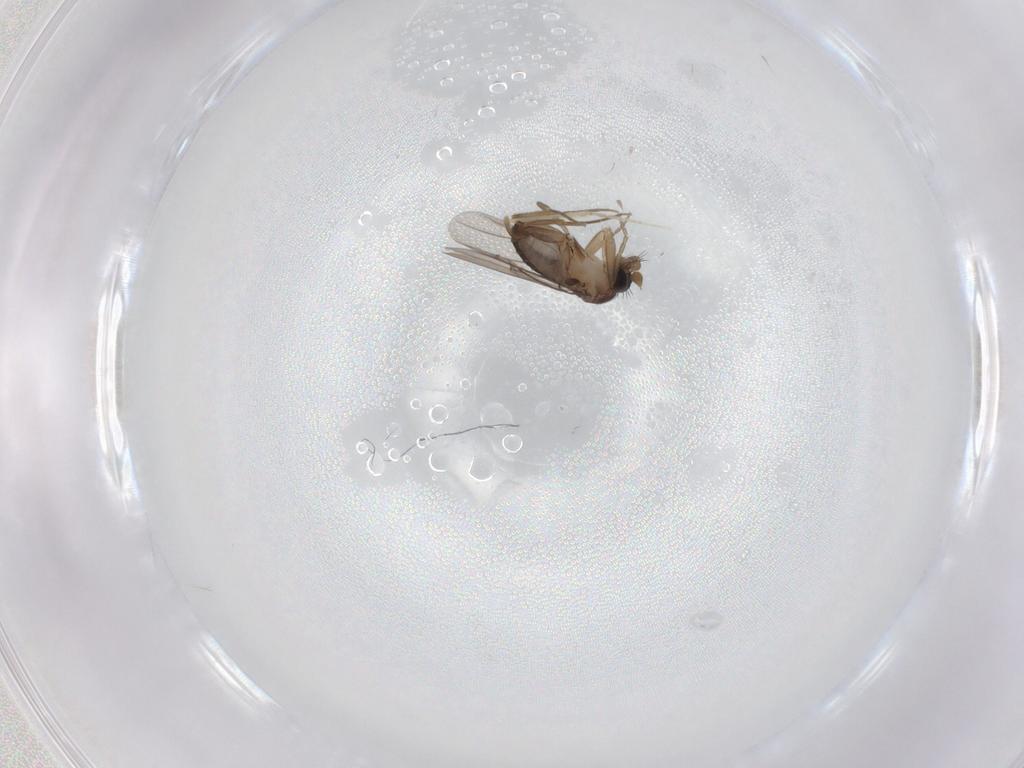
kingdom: Animalia
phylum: Arthropoda
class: Insecta
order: Diptera
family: Phoridae
